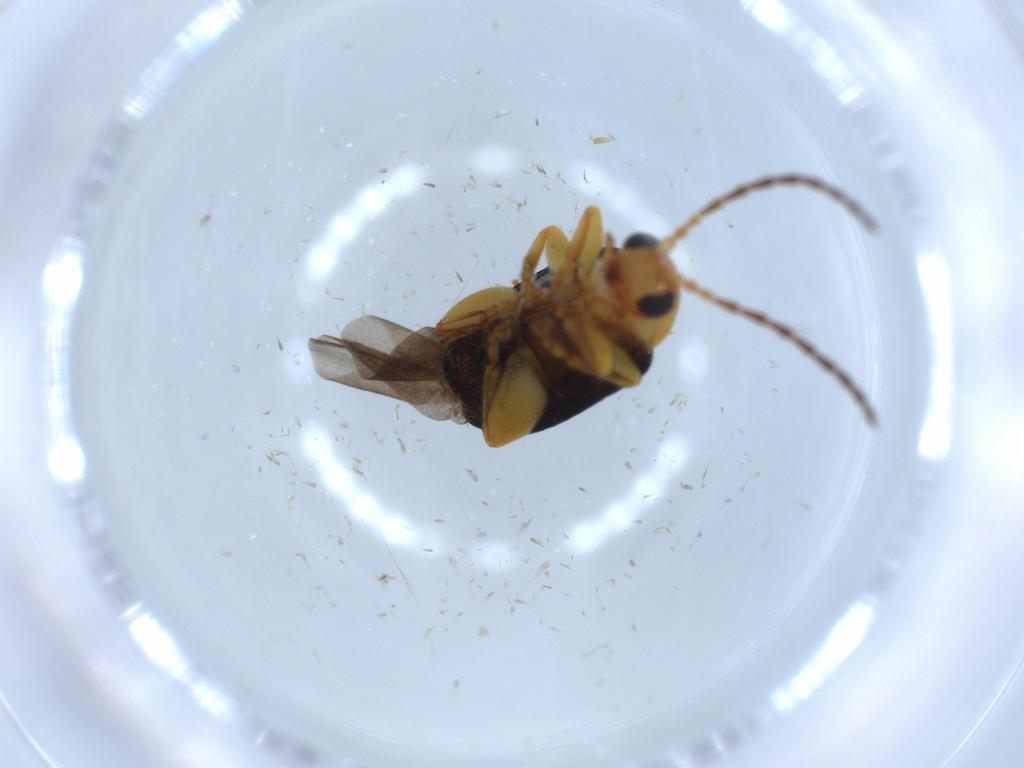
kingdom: Animalia
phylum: Arthropoda
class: Insecta
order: Coleoptera
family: Chrysomelidae
